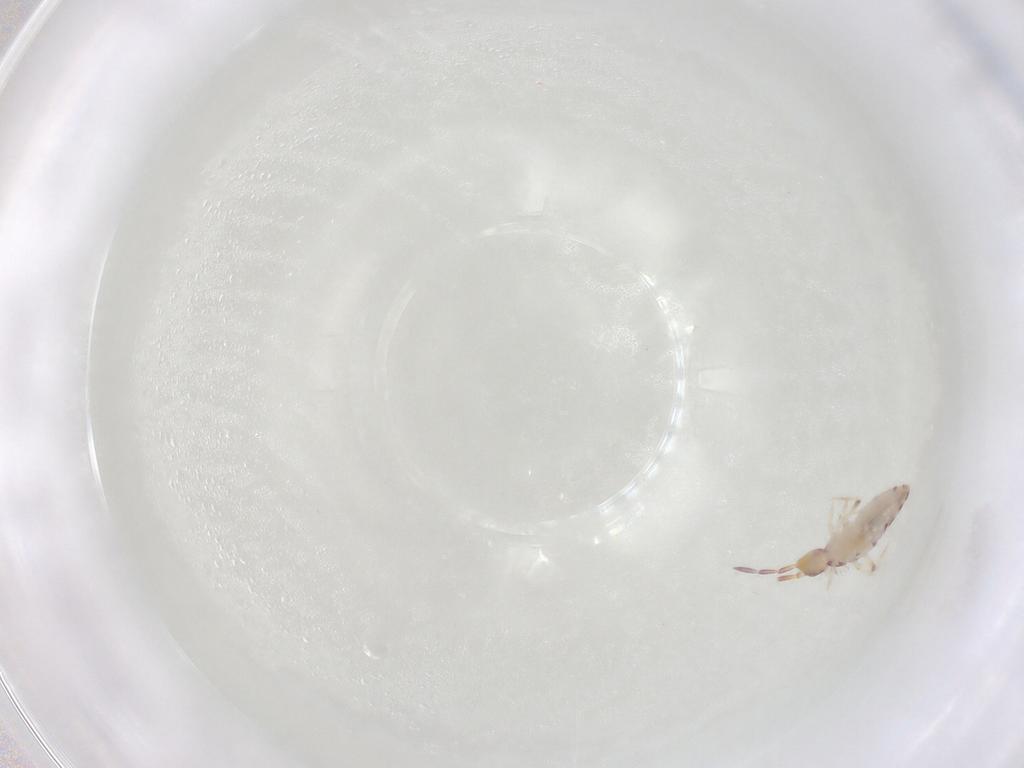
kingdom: Animalia
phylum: Arthropoda
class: Collembola
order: Entomobryomorpha
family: Entomobryidae
